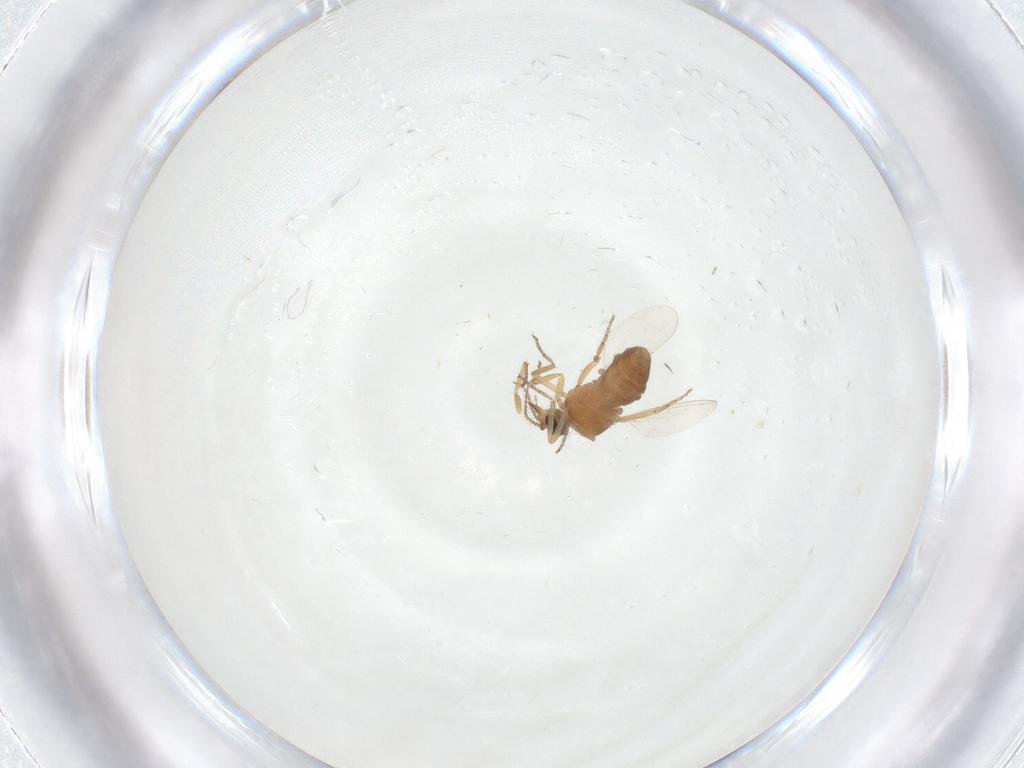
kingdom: Animalia
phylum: Arthropoda
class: Insecta
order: Diptera
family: Ceratopogonidae
